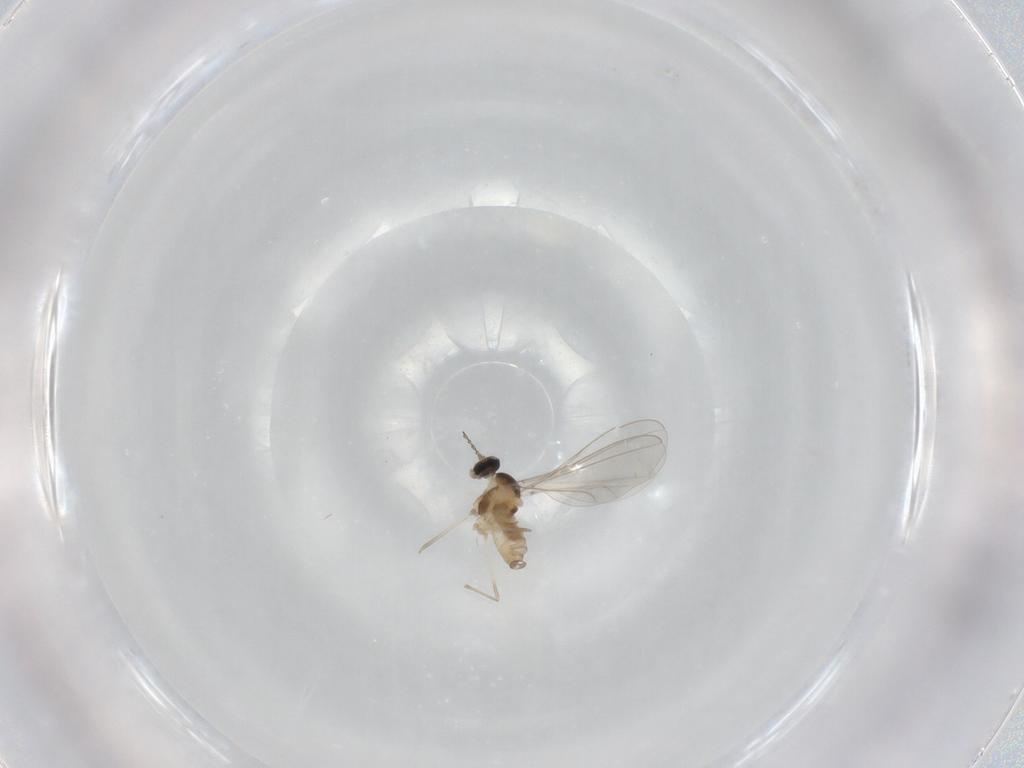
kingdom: Animalia
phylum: Arthropoda
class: Insecta
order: Diptera
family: Cecidomyiidae
